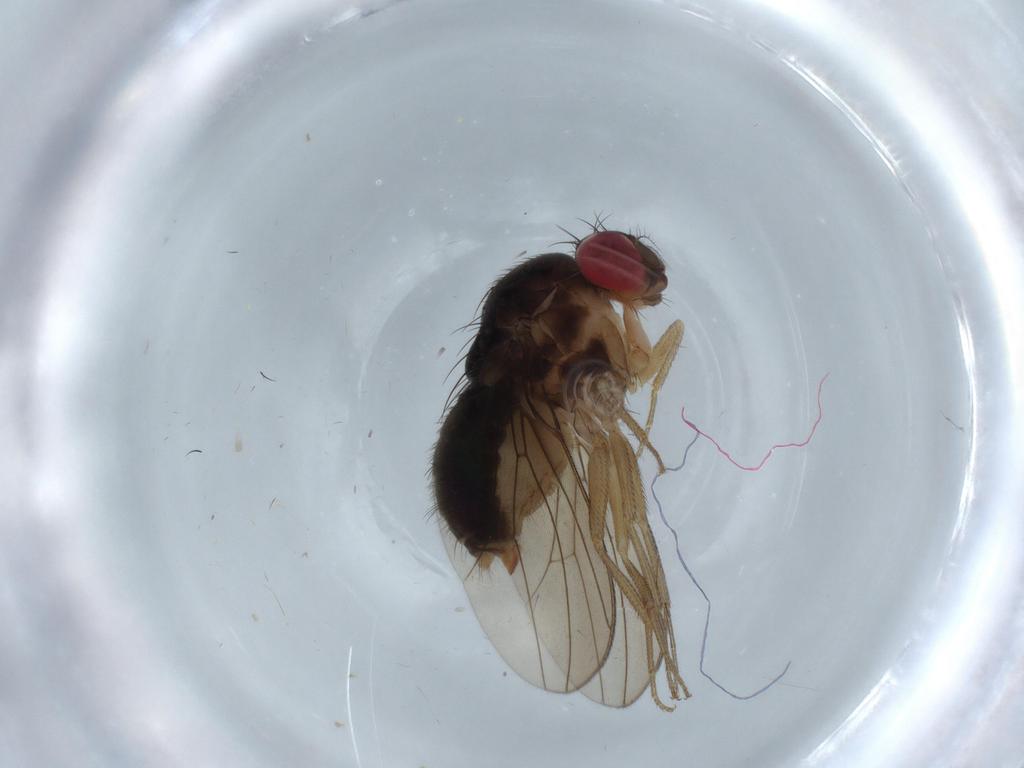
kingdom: Animalia
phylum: Arthropoda
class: Insecta
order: Diptera
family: Drosophilidae
